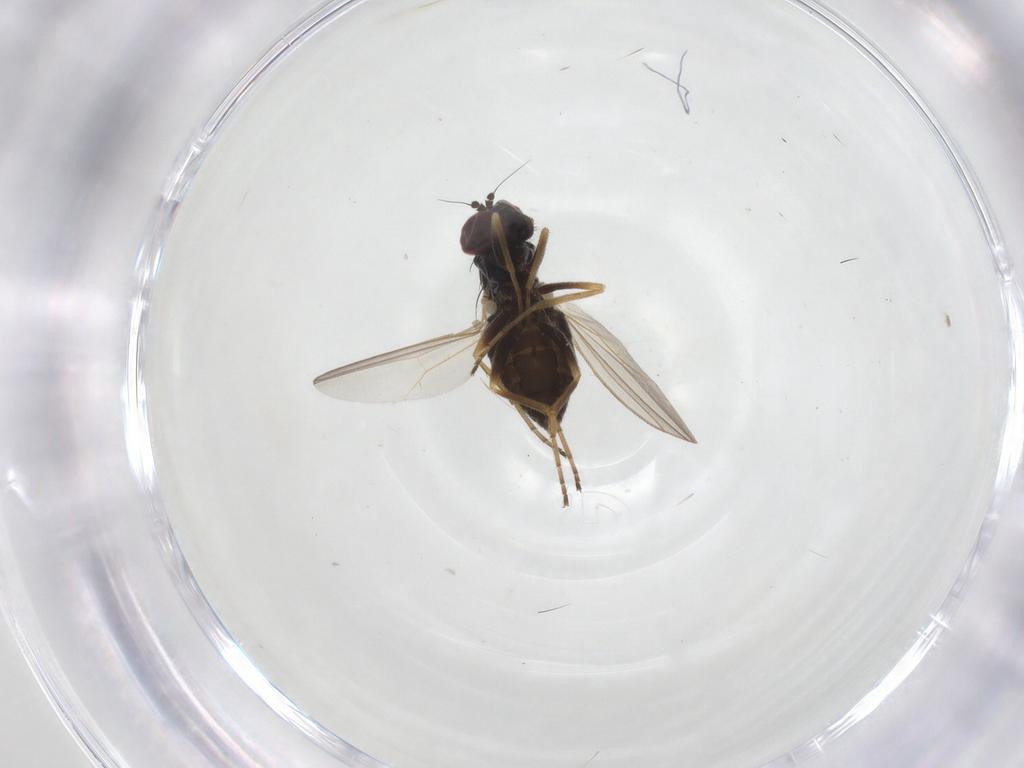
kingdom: Animalia
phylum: Arthropoda
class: Insecta
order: Diptera
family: Dolichopodidae
